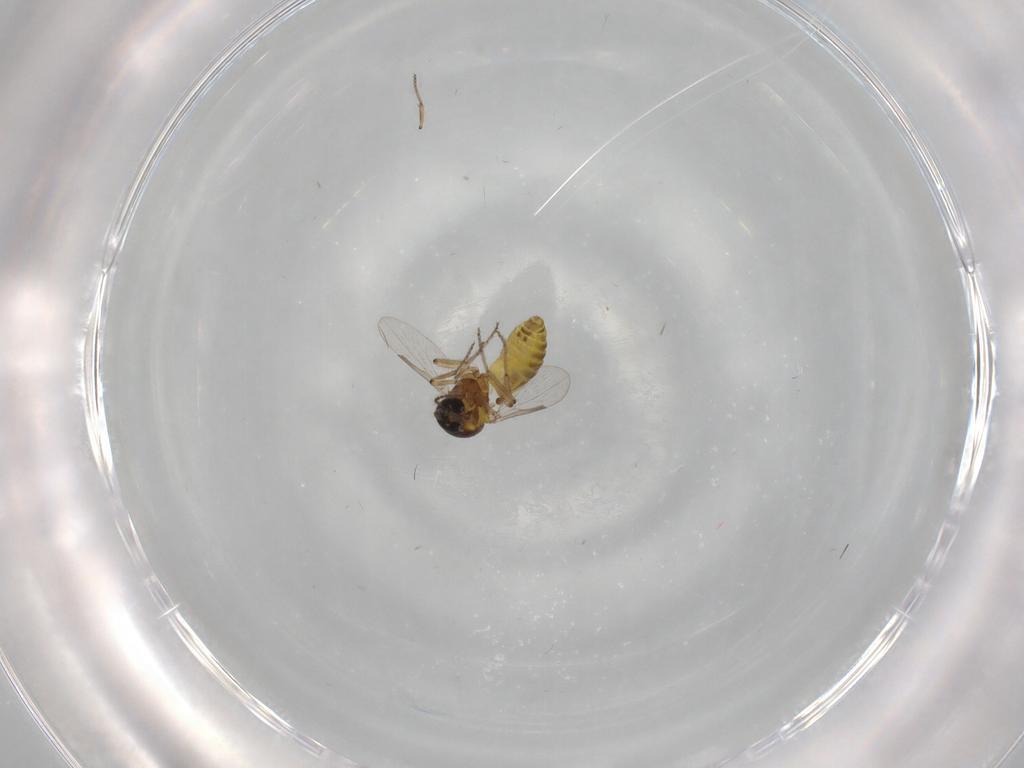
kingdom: Animalia
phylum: Arthropoda
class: Insecta
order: Diptera
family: Ceratopogonidae
